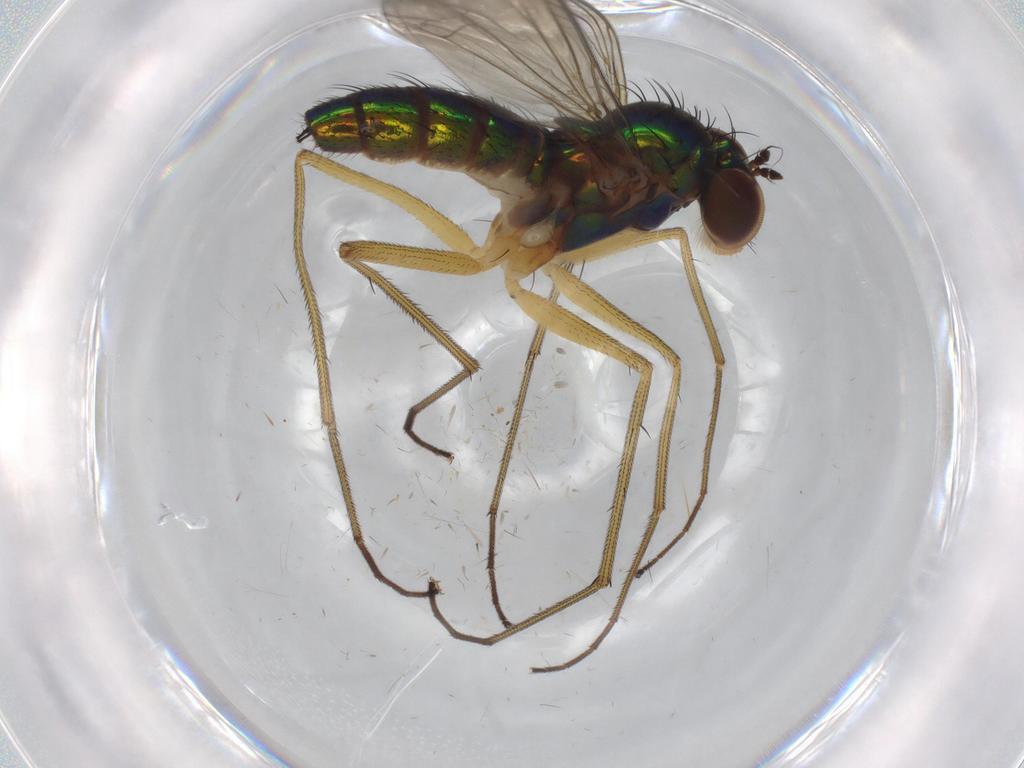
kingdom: Animalia
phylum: Arthropoda
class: Insecta
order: Diptera
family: Dolichopodidae
